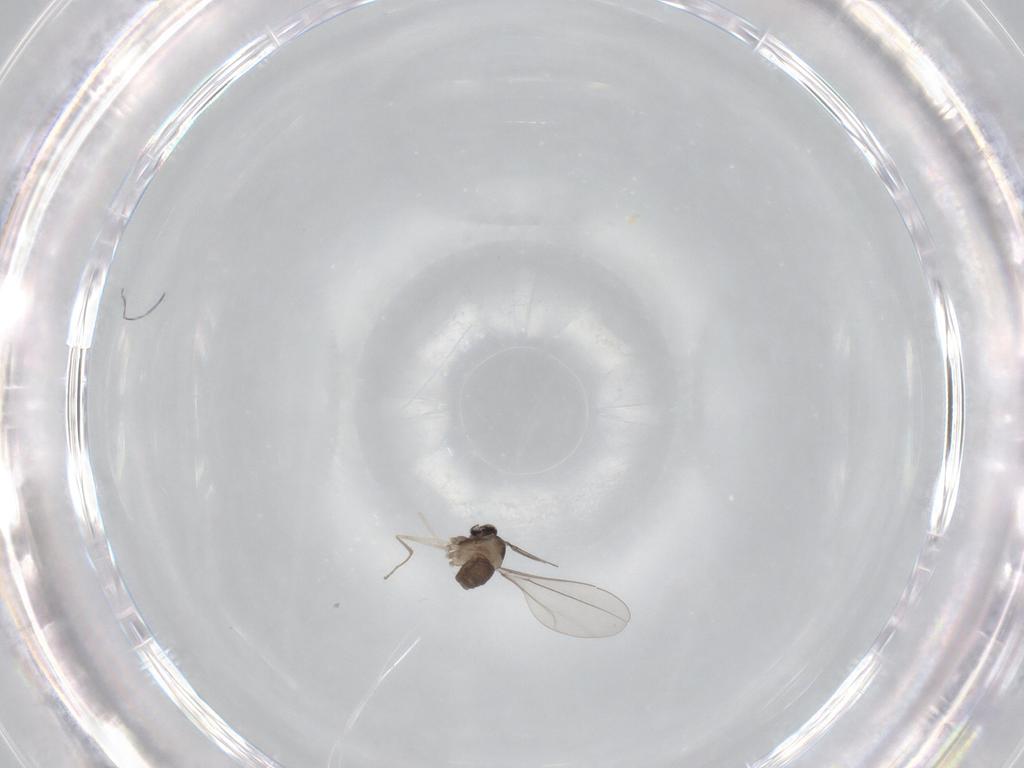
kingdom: Animalia
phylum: Arthropoda
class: Insecta
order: Diptera
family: Cecidomyiidae
